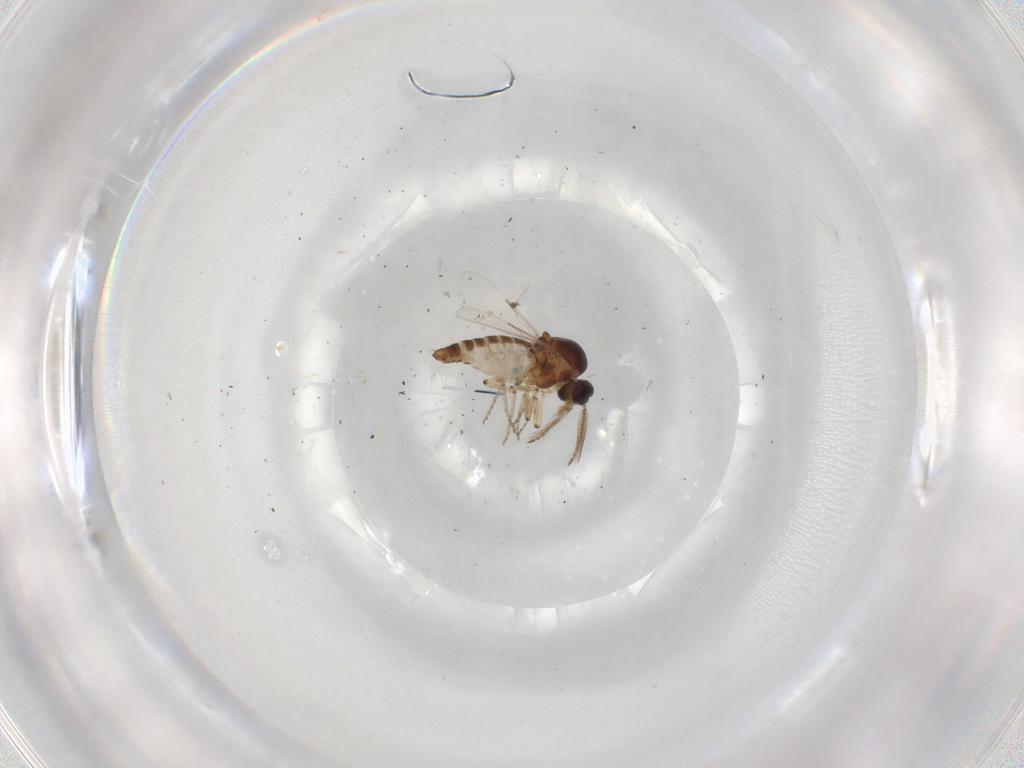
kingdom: Animalia
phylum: Arthropoda
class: Insecta
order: Diptera
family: Ceratopogonidae
